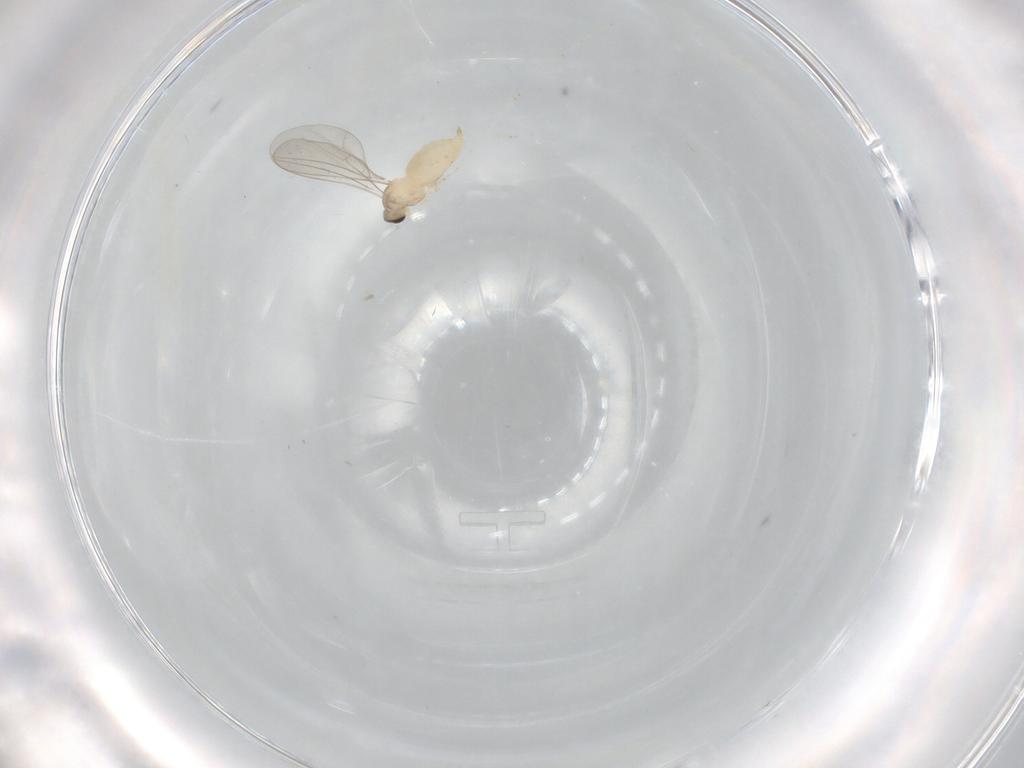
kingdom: Animalia
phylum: Arthropoda
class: Insecta
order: Diptera
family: Cecidomyiidae
